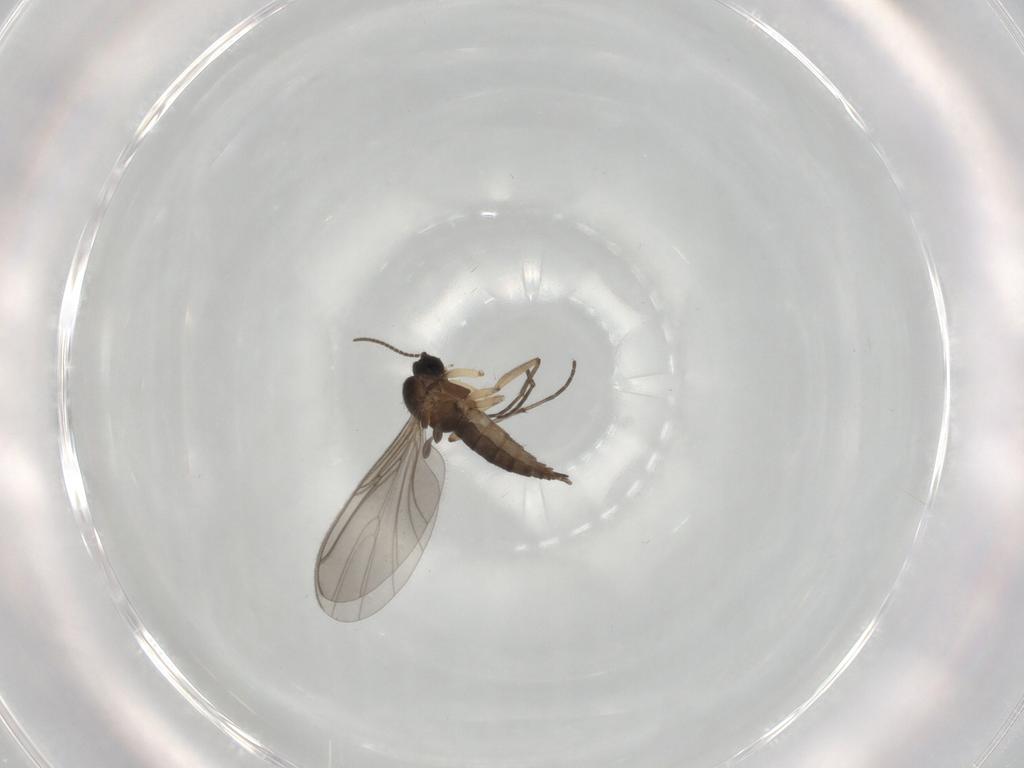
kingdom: Animalia
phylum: Arthropoda
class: Insecta
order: Diptera
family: Sciaridae
